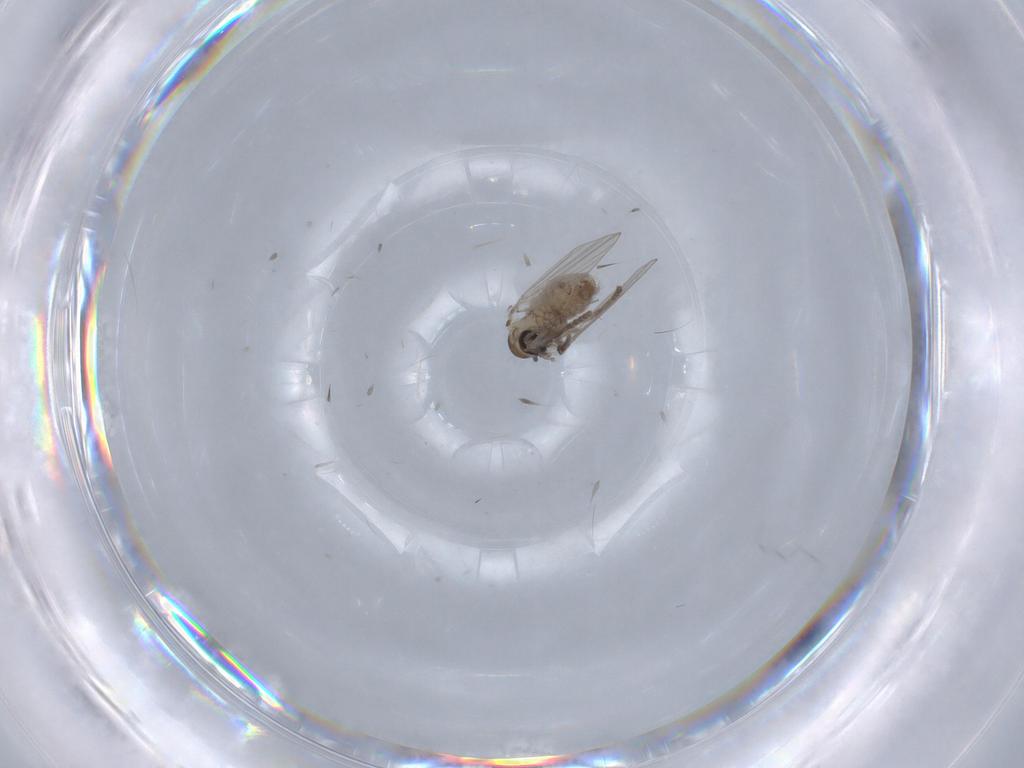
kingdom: Animalia
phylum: Arthropoda
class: Insecta
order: Diptera
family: Psychodidae
